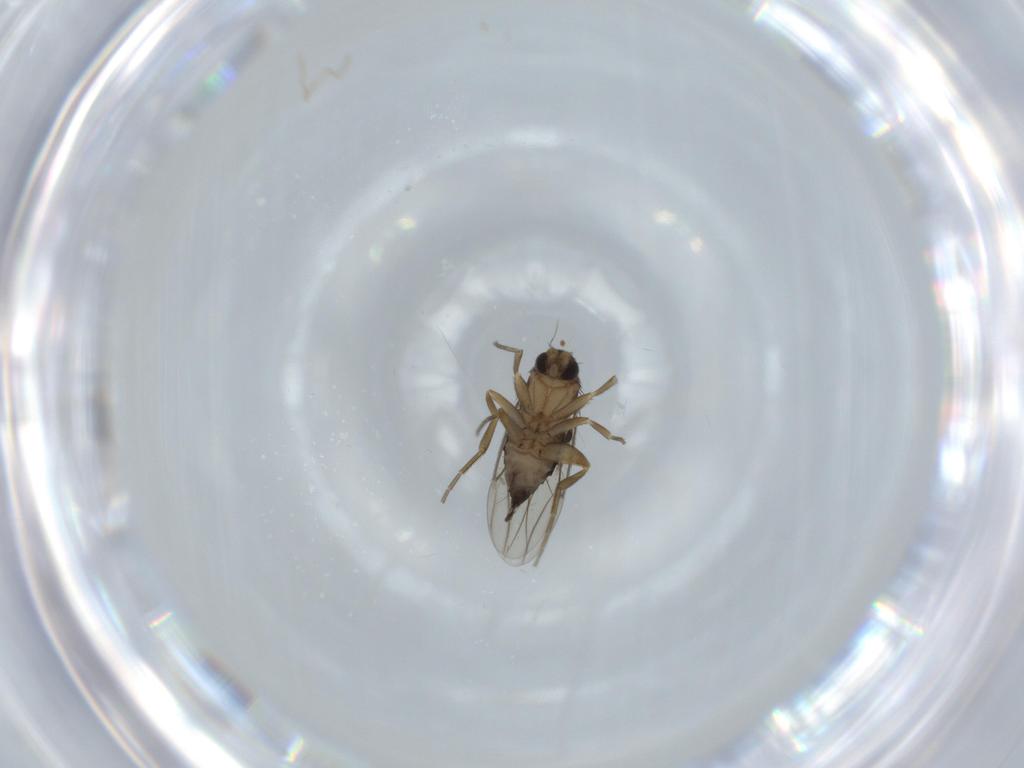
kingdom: Animalia
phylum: Arthropoda
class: Insecta
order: Diptera
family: Phoridae
